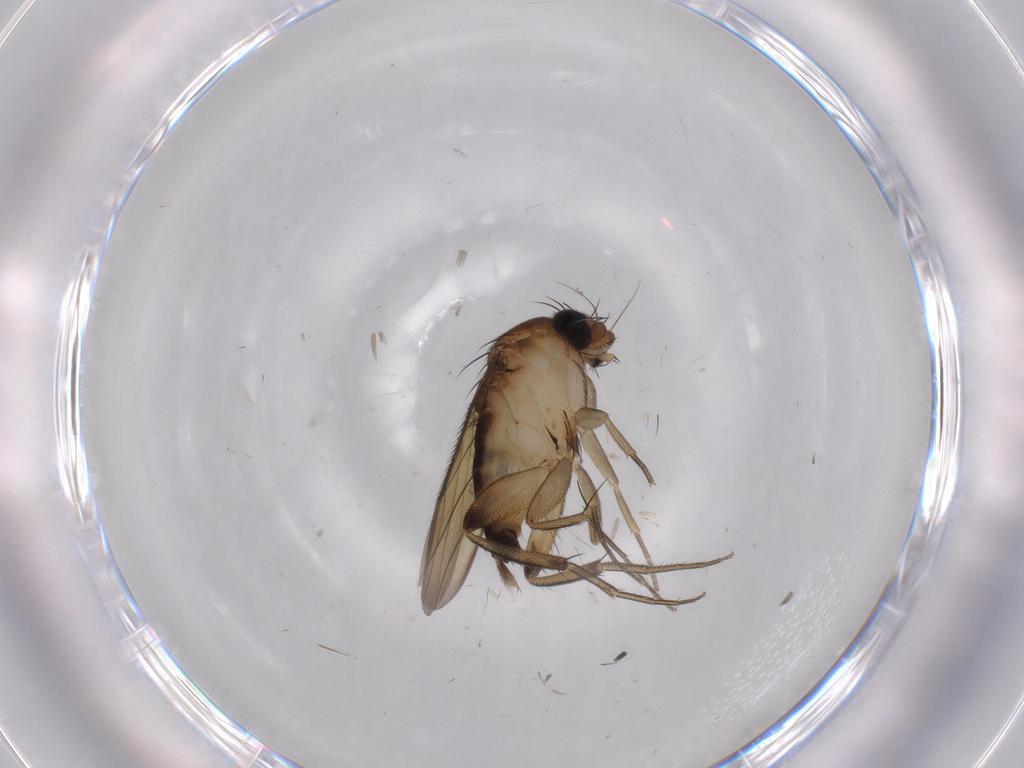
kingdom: Animalia
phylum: Arthropoda
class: Insecta
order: Diptera
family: Phoridae
